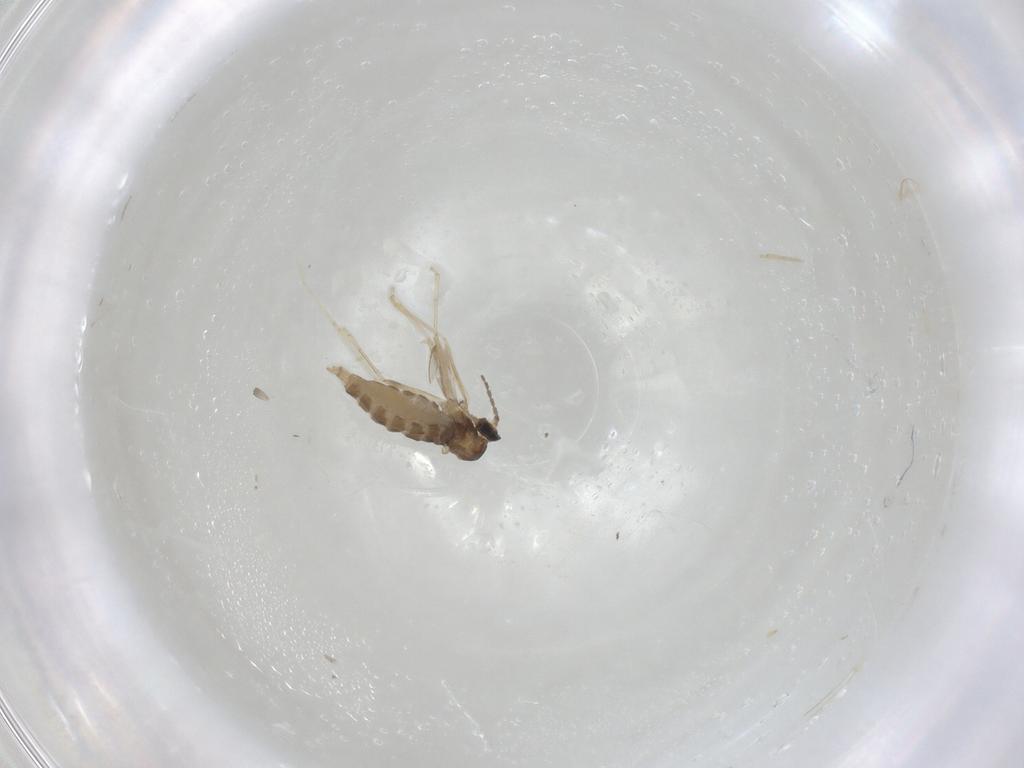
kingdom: Animalia
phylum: Arthropoda
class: Insecta
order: Diptera
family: Cecidomyiidae
